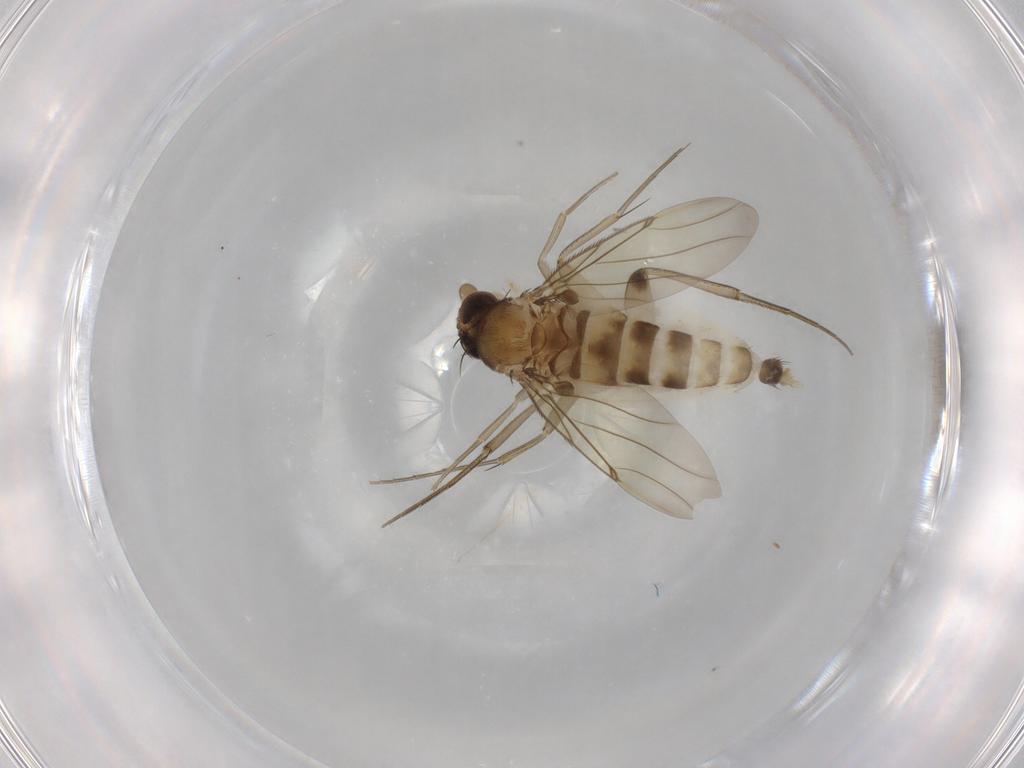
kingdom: Animalia
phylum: Arthropoda
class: Insecta
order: Diptera
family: Phoridae
